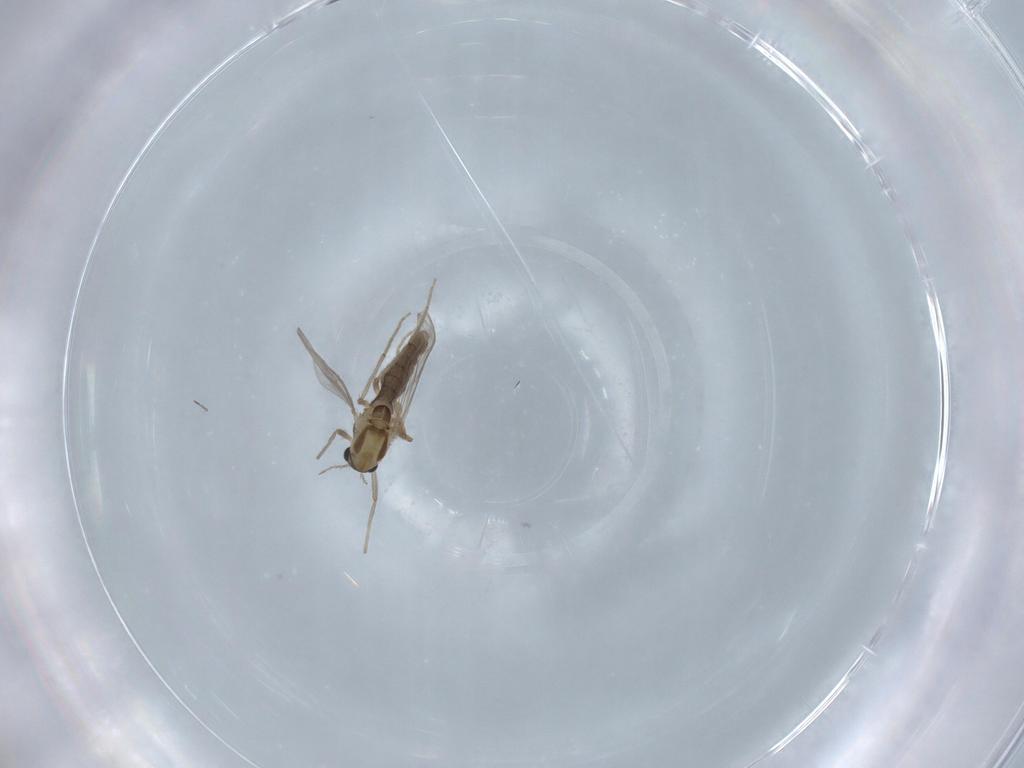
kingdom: Animalia
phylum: Arthropoda
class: Insecta
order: Diptera
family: Chironomidae
